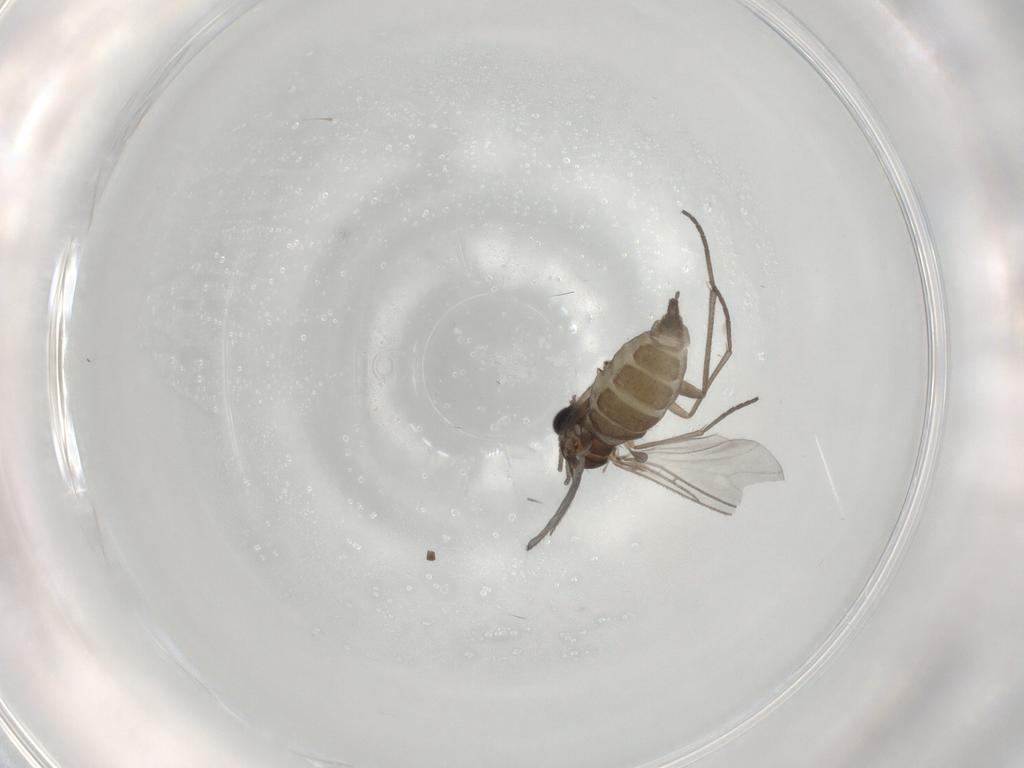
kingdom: Animalia
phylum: Arthropoda
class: Insecta
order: Diptera
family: Sciaridae
